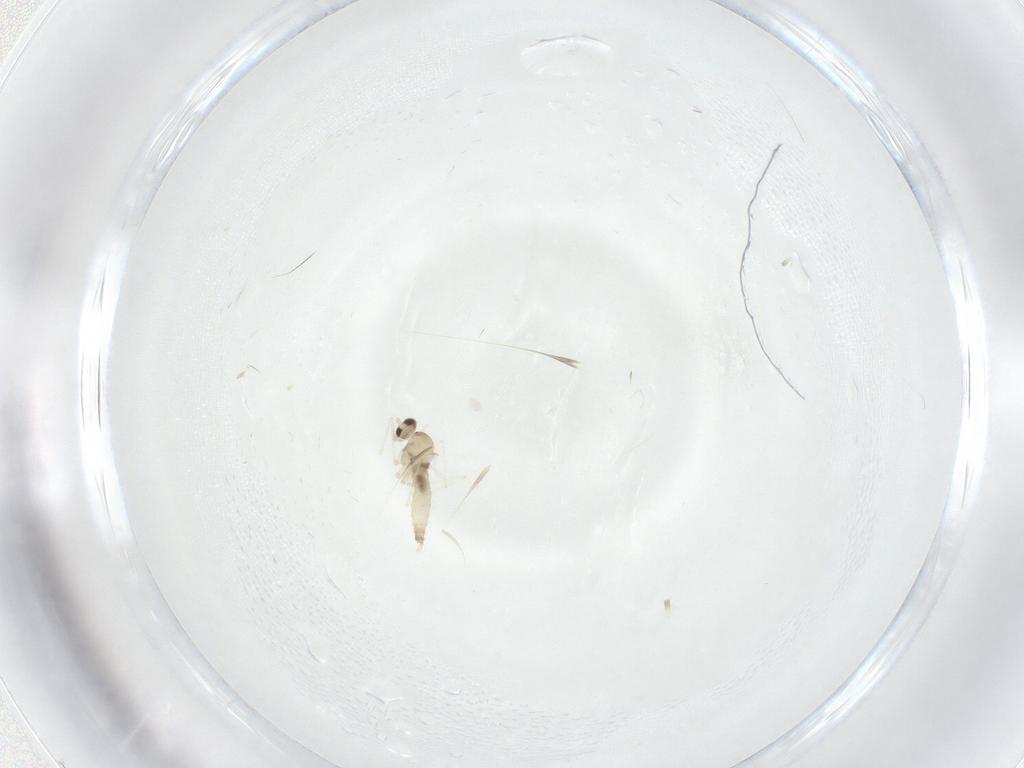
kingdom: Animalia
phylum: Arthropoda
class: Insecta
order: Diptera
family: Cecidomyiidae
